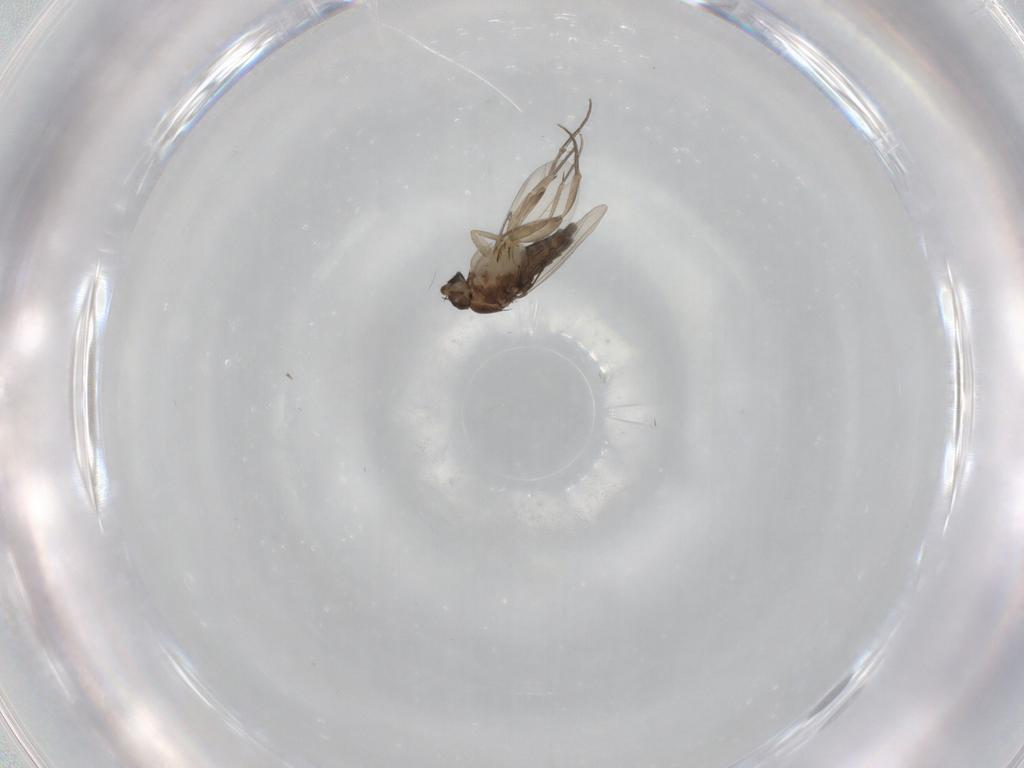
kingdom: Animalia
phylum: Arthropoda
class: Insecta
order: Diptera
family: Phoridae
